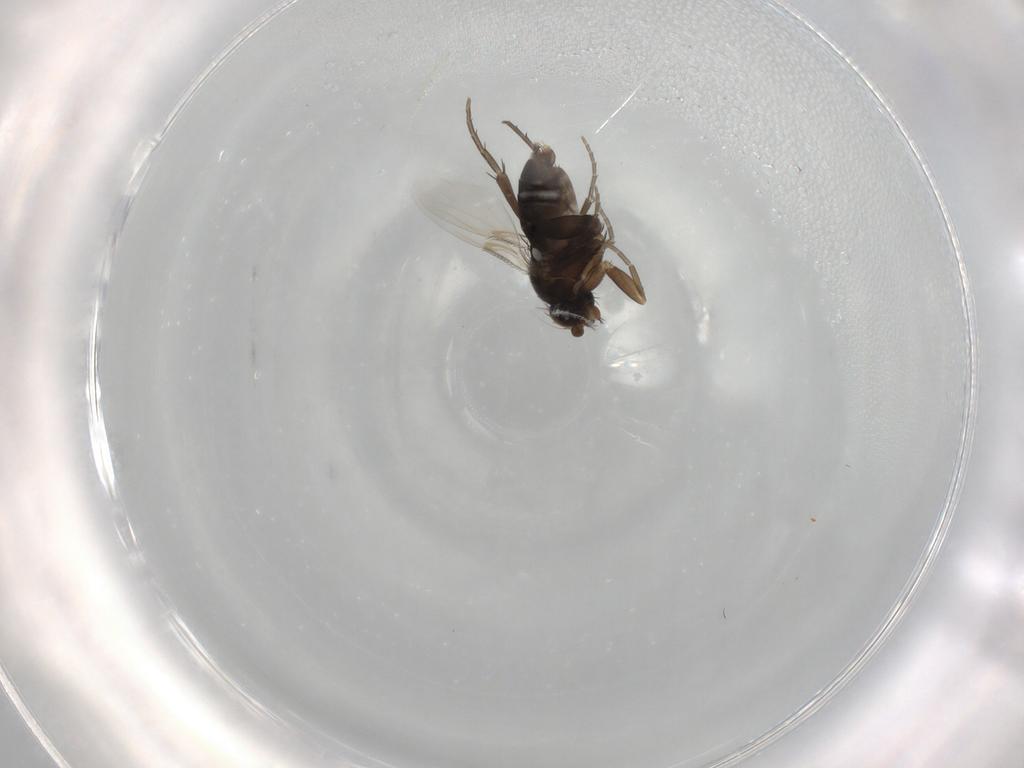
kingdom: Animalia
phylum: Arthropoda
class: Insecta
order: Diptera
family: Phoridae
